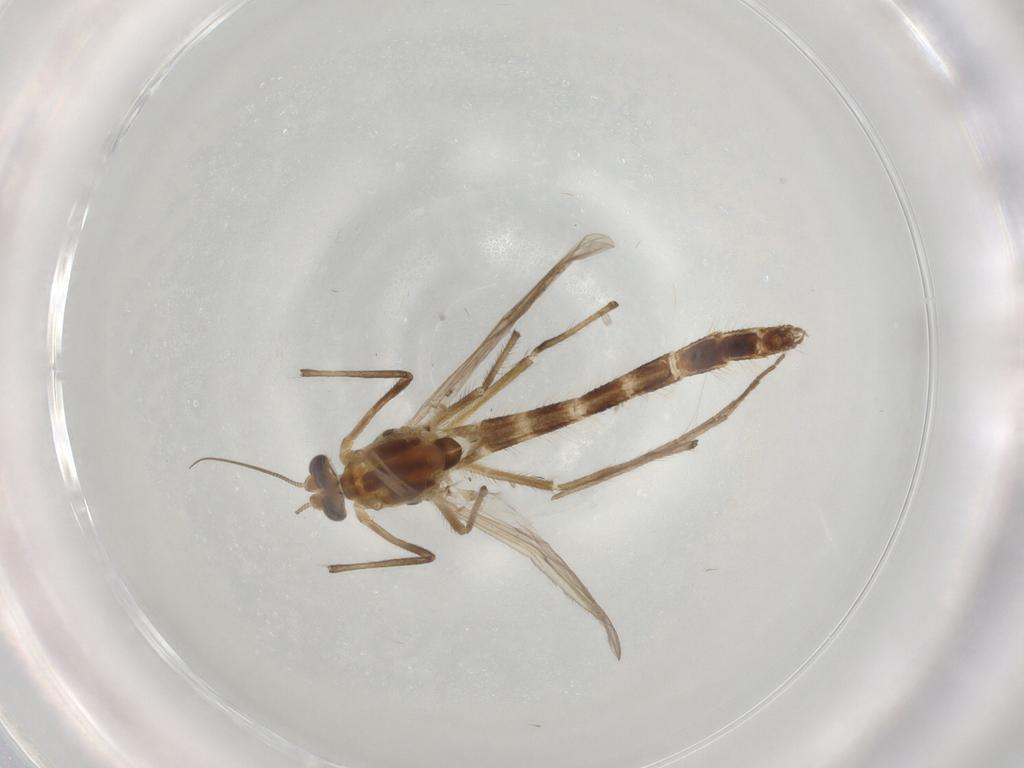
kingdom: Animalia
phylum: Arthropoda
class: Insecta
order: Diptera
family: Chironomidae
